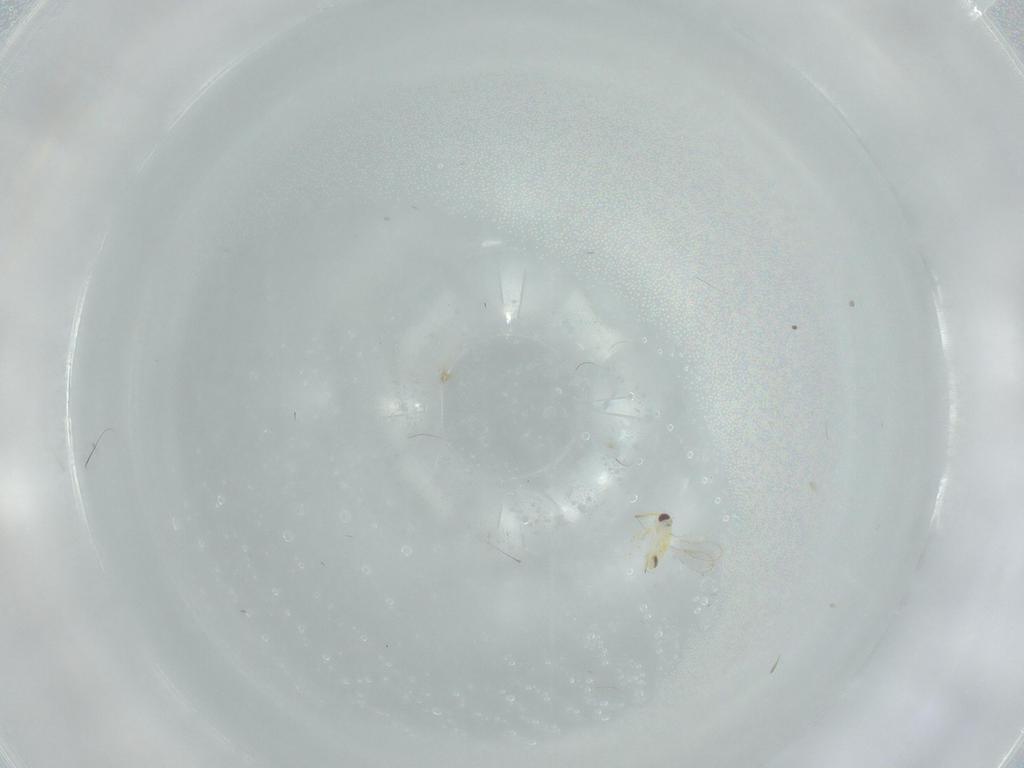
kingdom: Animalia
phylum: Arthropoda
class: Insecta
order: Hymenoptera
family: Aphelinidae
